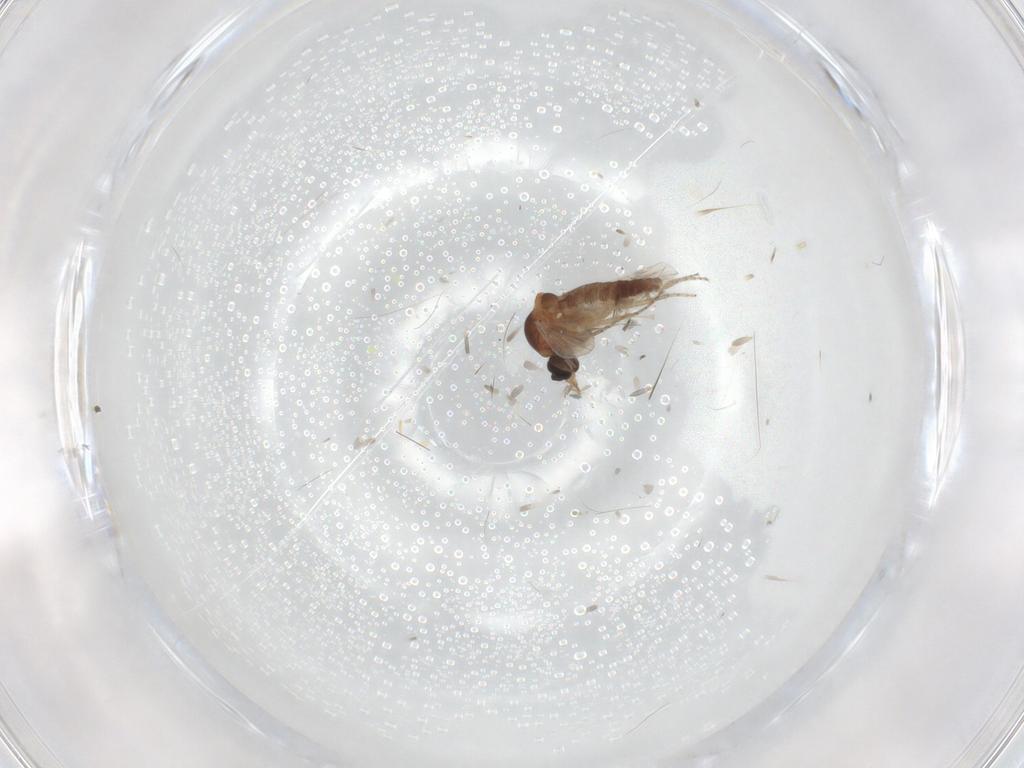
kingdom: Animalia
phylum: Arthropoda
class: Insecta
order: Diptera
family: Ceratopogonidae
